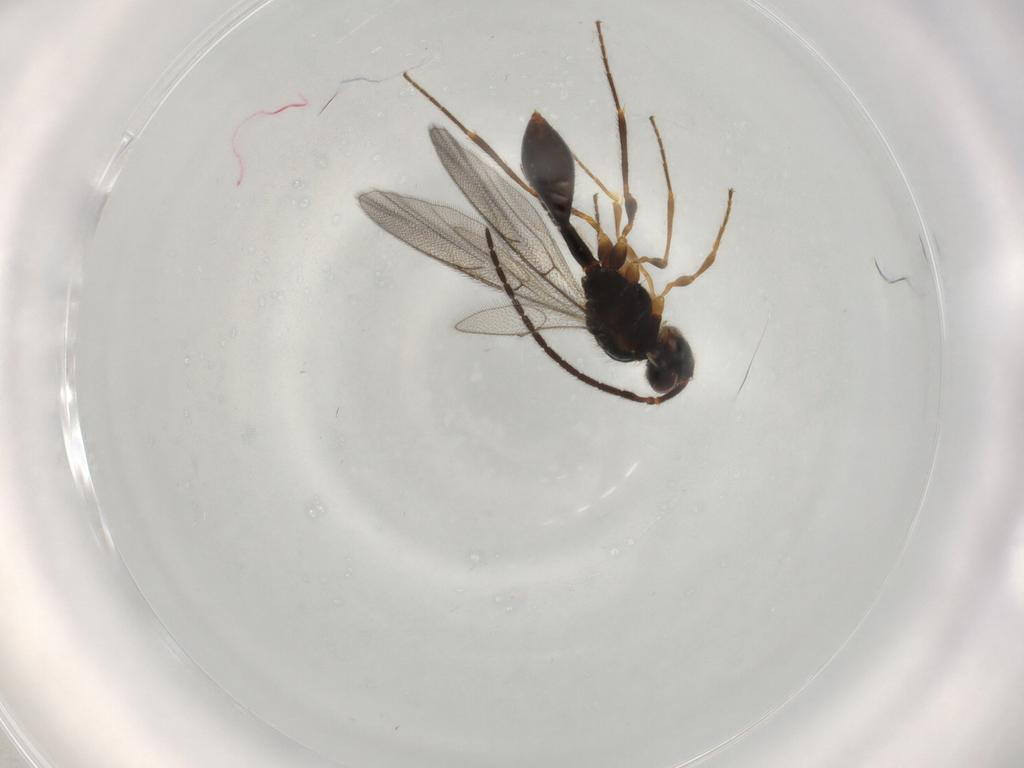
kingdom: Animalia
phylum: Arthropoda
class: Insecta
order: Hymenoptera
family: Diapriidae
